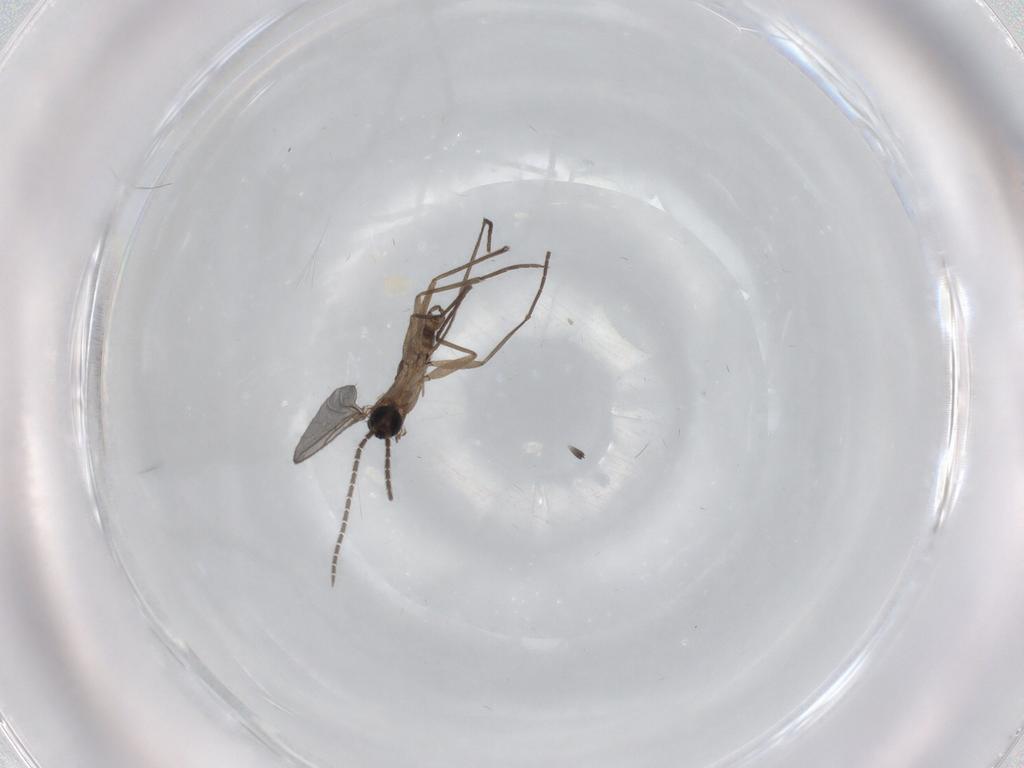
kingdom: Animalia
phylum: Arthropoda
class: Insecta
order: Diptera
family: Sciaridae
